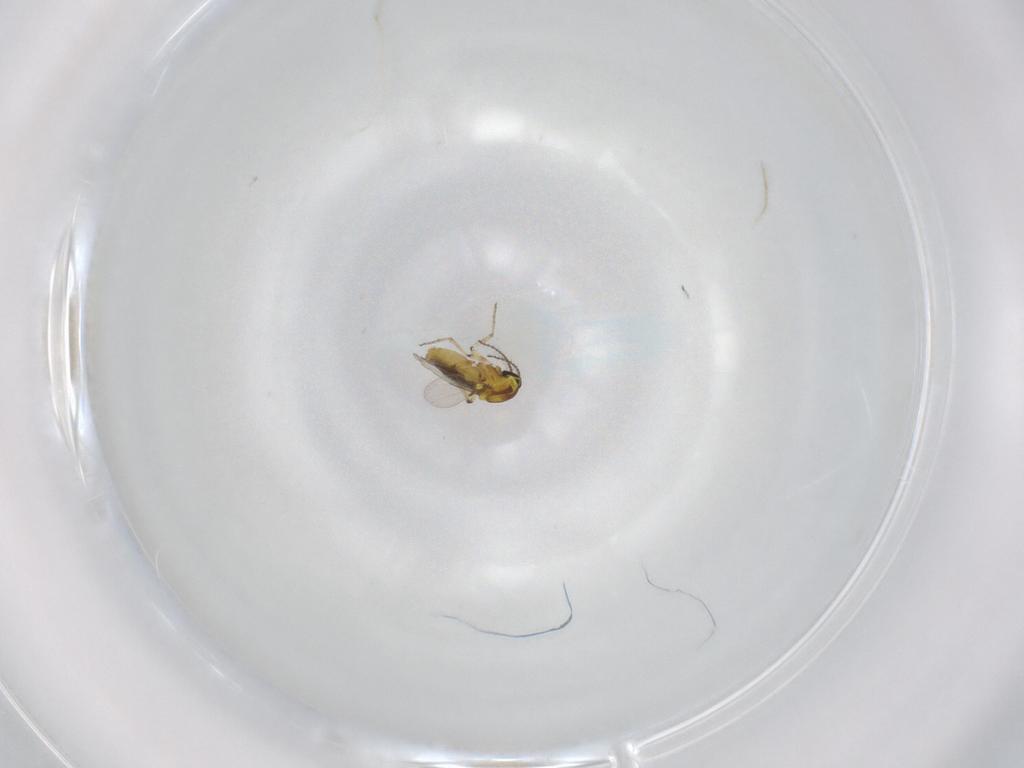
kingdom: Animalia
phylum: Arthropoda
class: Insecta
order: Diptera
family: Ceratopogonidae
